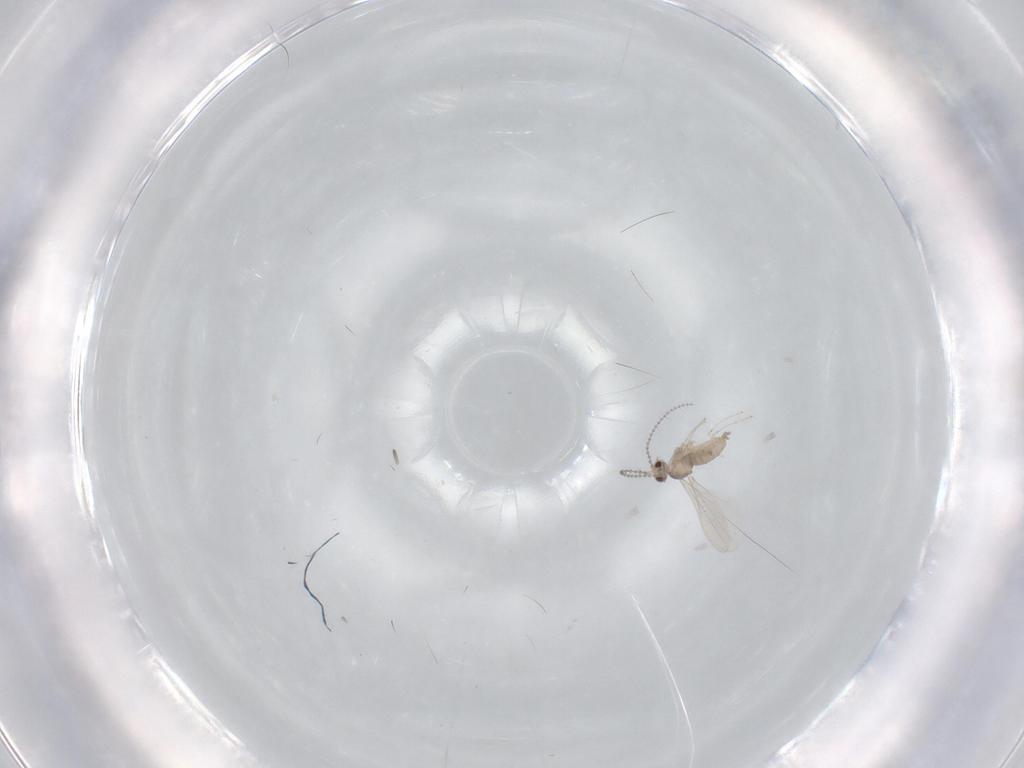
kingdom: Animalia
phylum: Arthropoda
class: Insecta
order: Diptera
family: Cecidomyiidae
